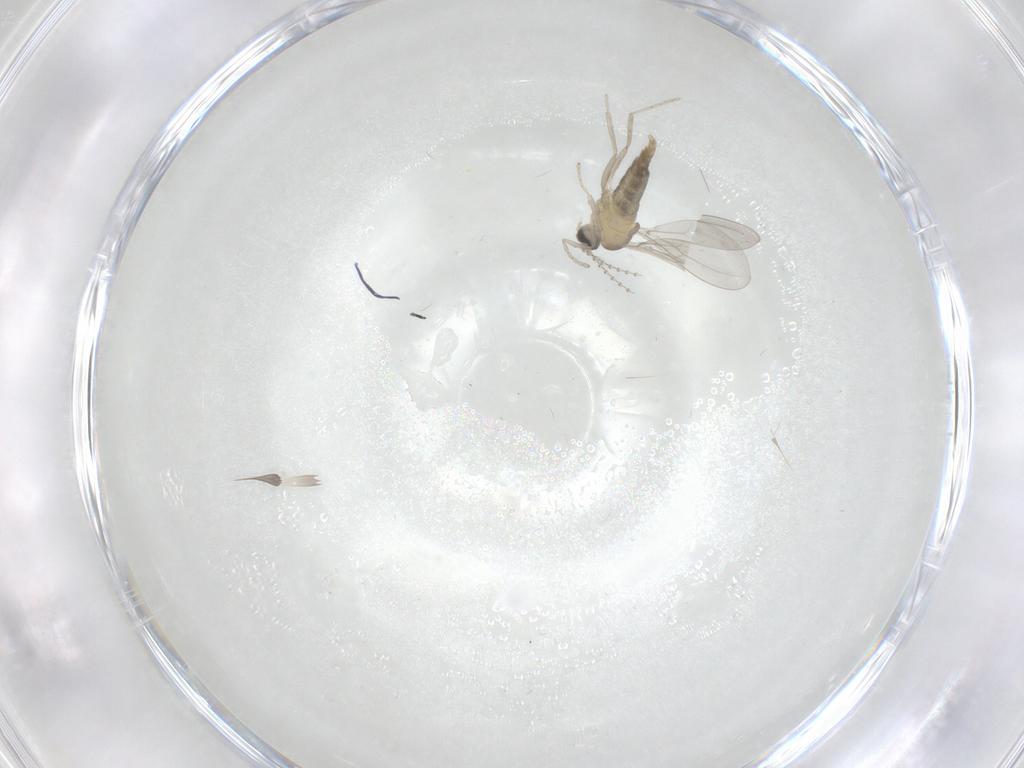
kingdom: Animalia
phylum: Arthropoda
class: Insecta
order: Diptera
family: Cecidomyiidae
